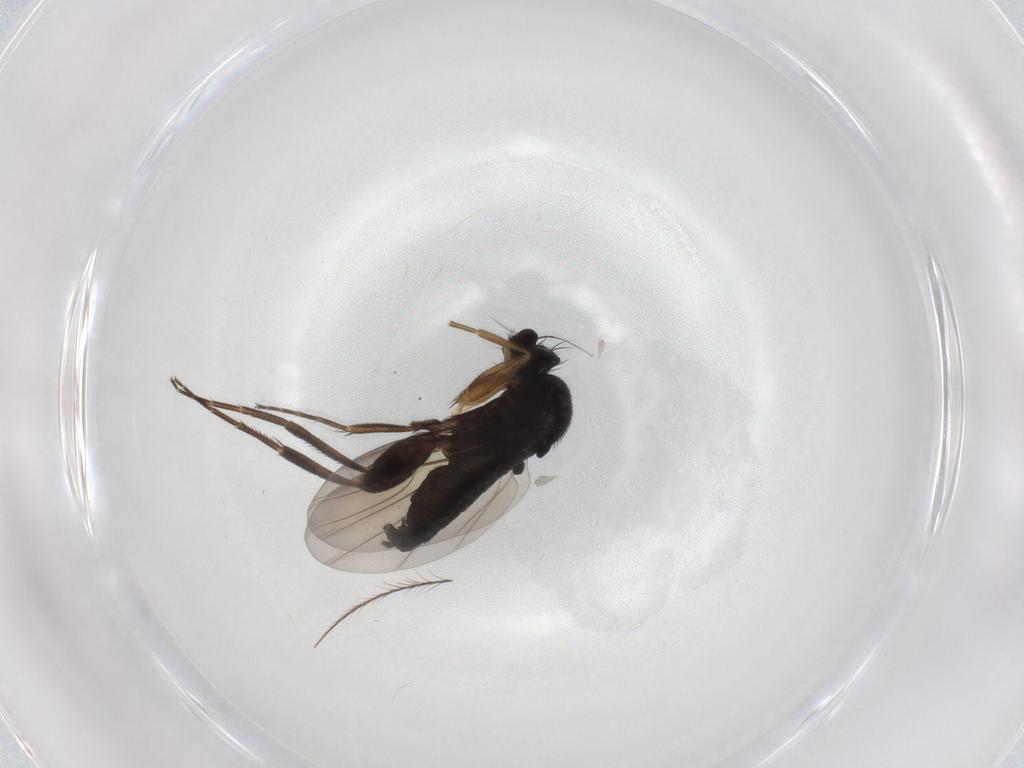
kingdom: Animalia
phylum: Arthropoda
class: Insecta
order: Diptera
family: Phoridae
